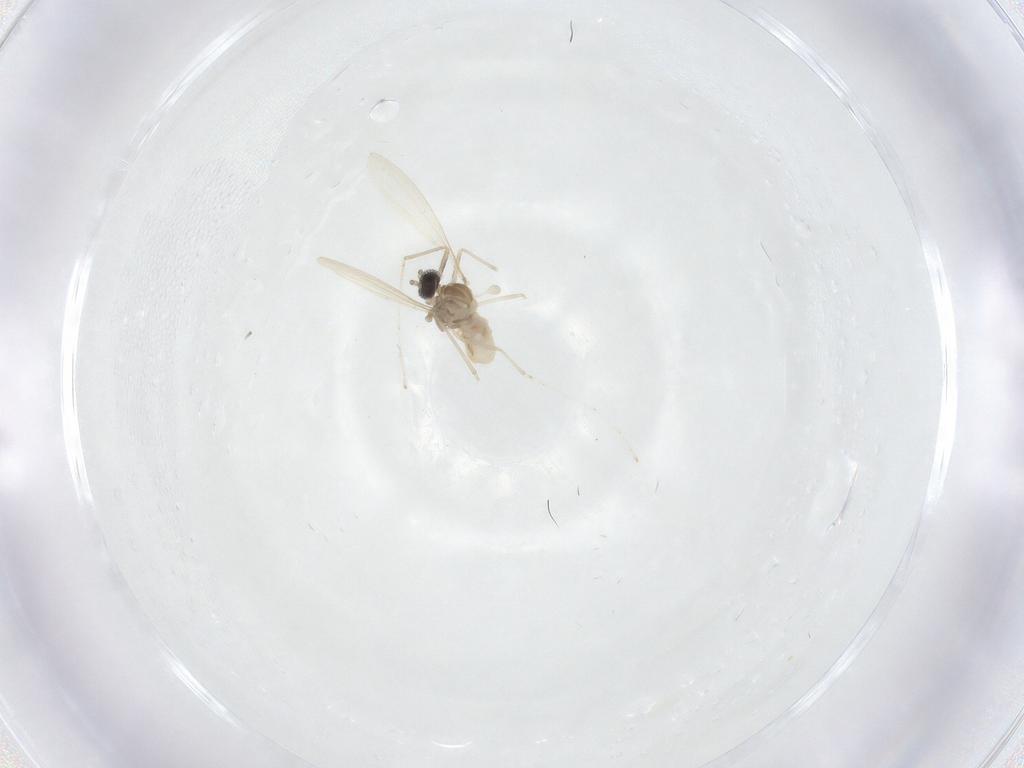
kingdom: Animalia
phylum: Arthropoda
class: Insecta
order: Diptera
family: Cecidomyiidae
